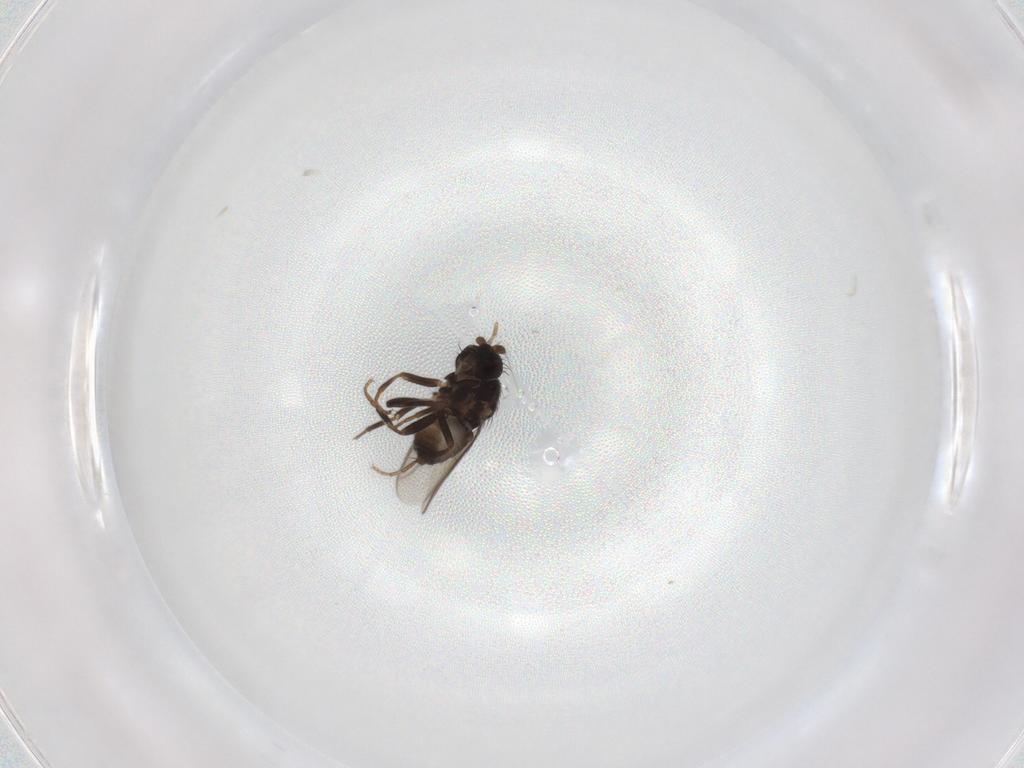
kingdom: Animalia
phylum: Arthropoda
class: Insecta
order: Diptera
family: Sphaeroceridae
